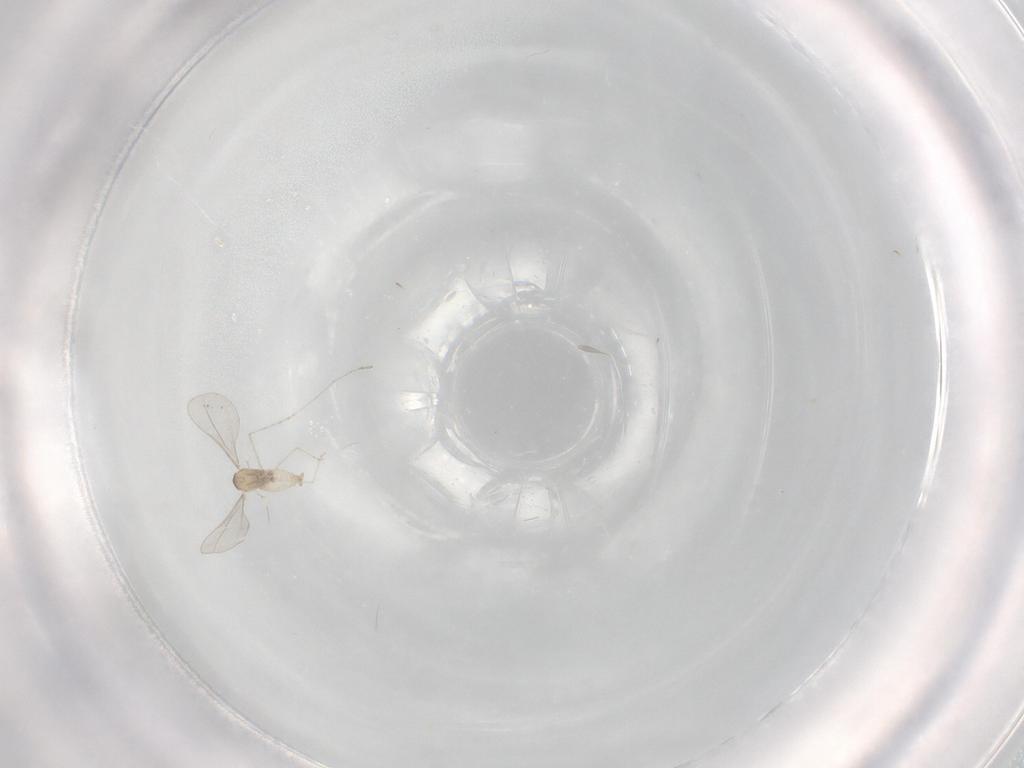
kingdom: Animalia
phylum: Arthropoda
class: Insecta
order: Diptera
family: Cecidomyiidae
